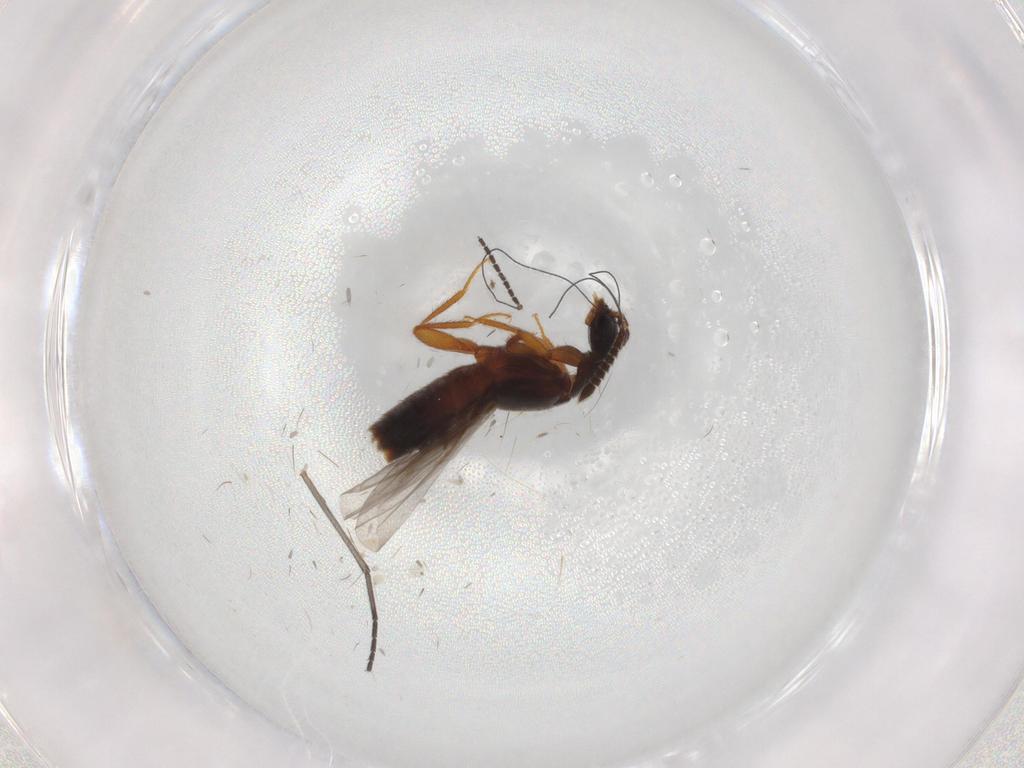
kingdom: Animalia
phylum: Arthropoda
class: Insecta
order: Coleoptera
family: Staphylinidae
